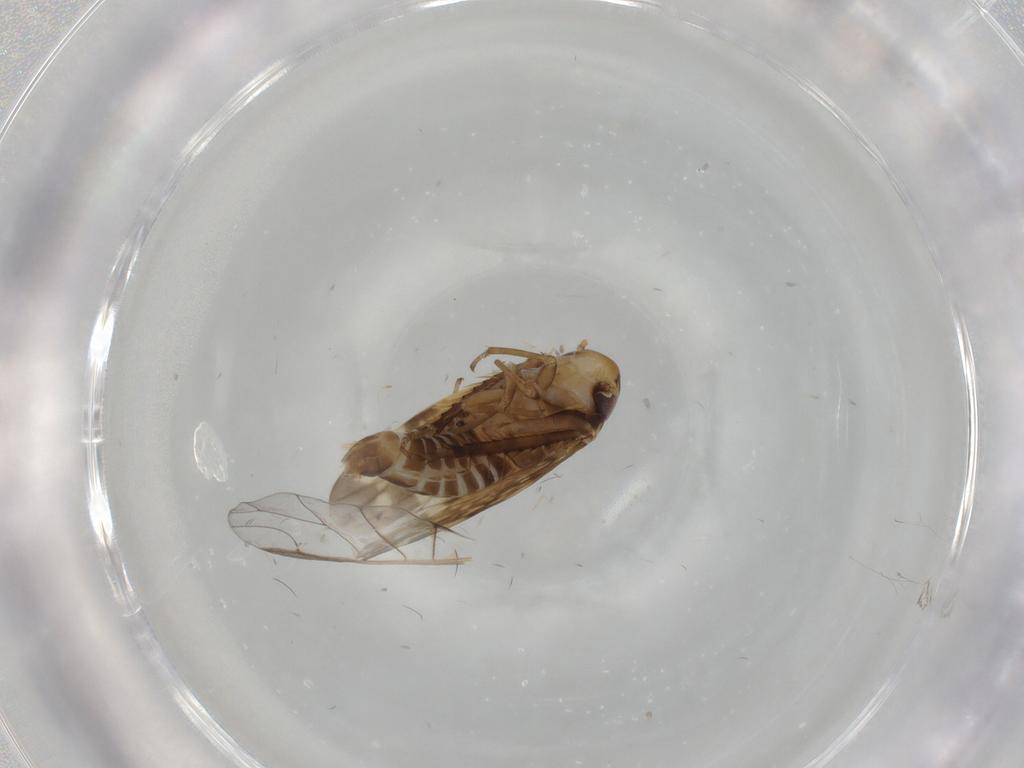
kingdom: Animalia
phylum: Arthropoda
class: Insecta
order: Hemiptera
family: Cicadellidae
